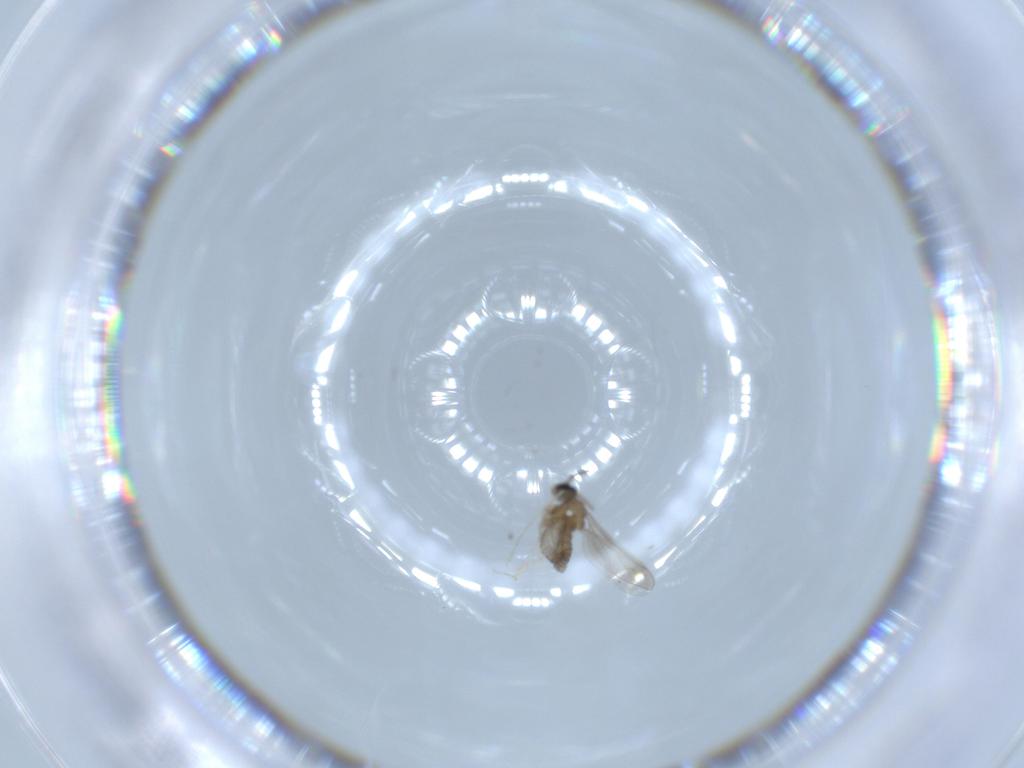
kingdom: Animalia
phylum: Arthropoda
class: Insecta
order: Diptera
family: Cecidomyiidae
